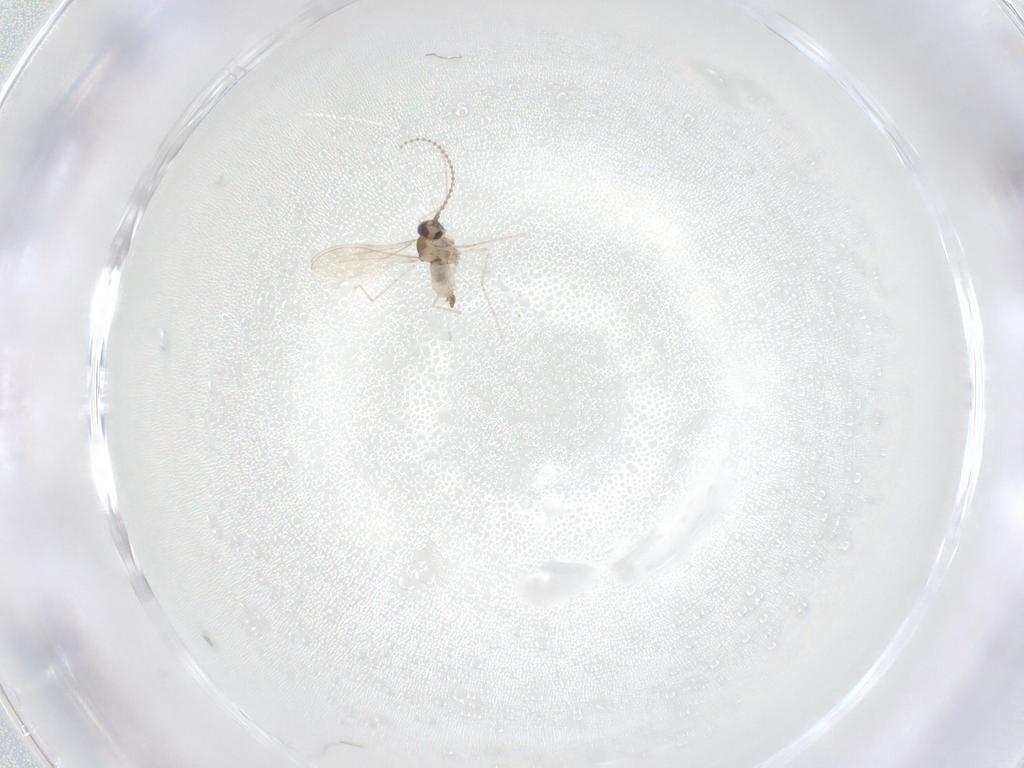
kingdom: Animalia
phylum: Arthropoda
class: Insecta
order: Diptera
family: Cecidomyiidae
